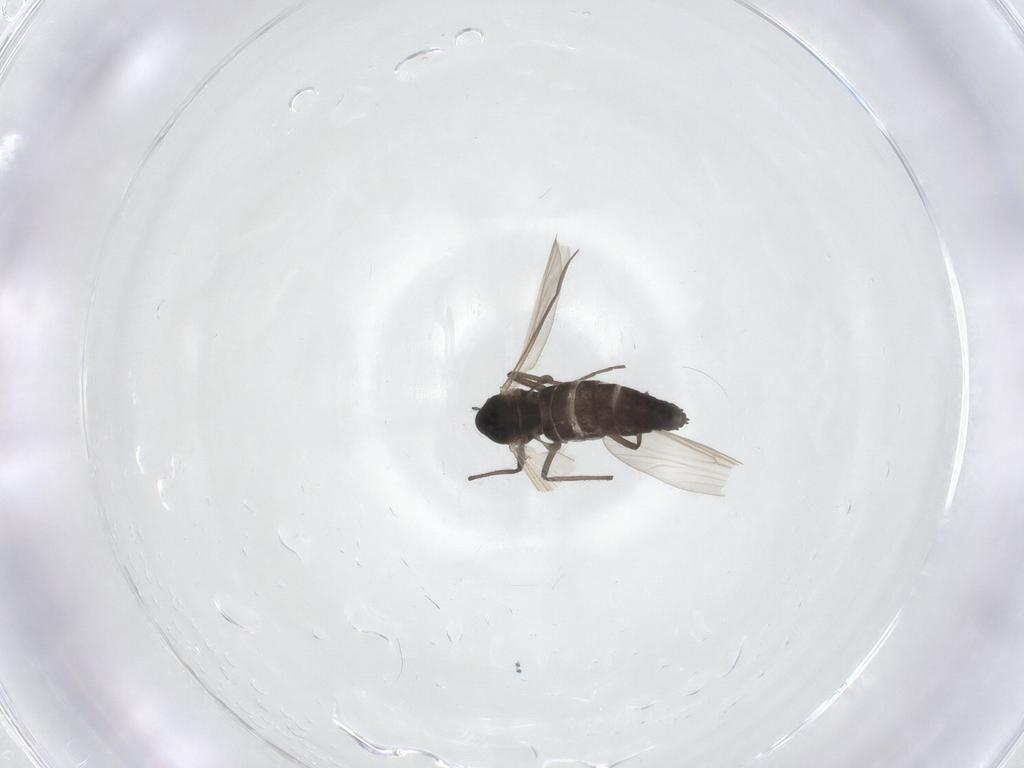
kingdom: Animalia
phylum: Arthropoda
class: Insecta
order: Diptera
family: Chironomidae
